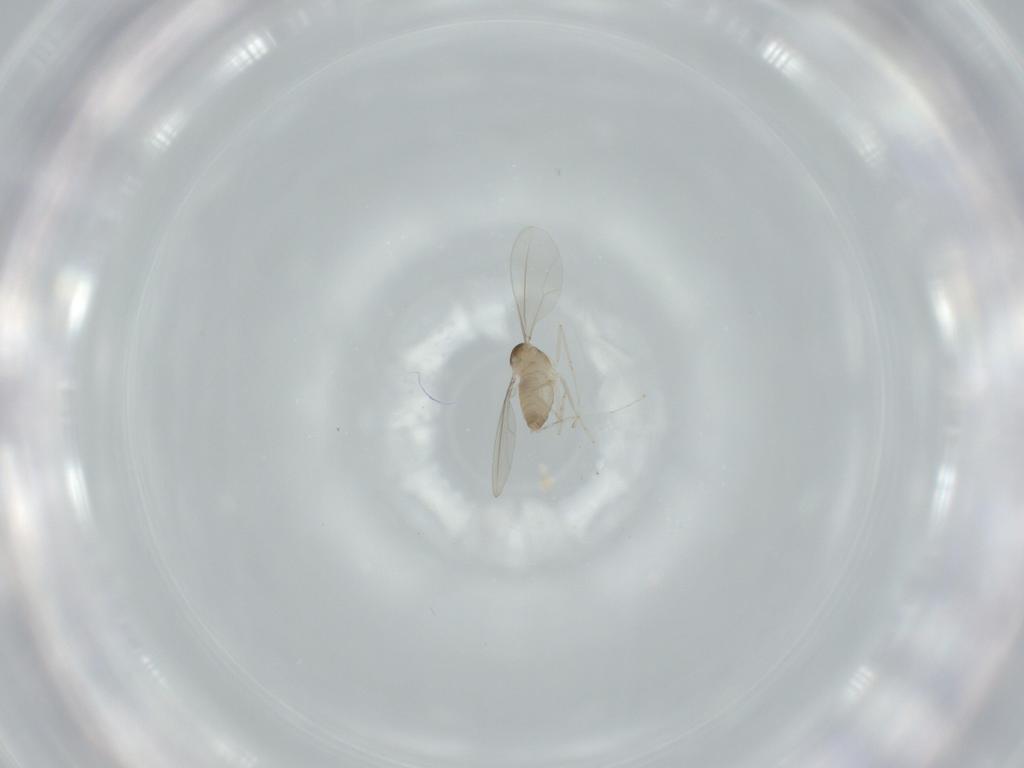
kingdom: Animalia
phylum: Arthropoda
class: Insecta
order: Diptera
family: Cecidomyiidae
